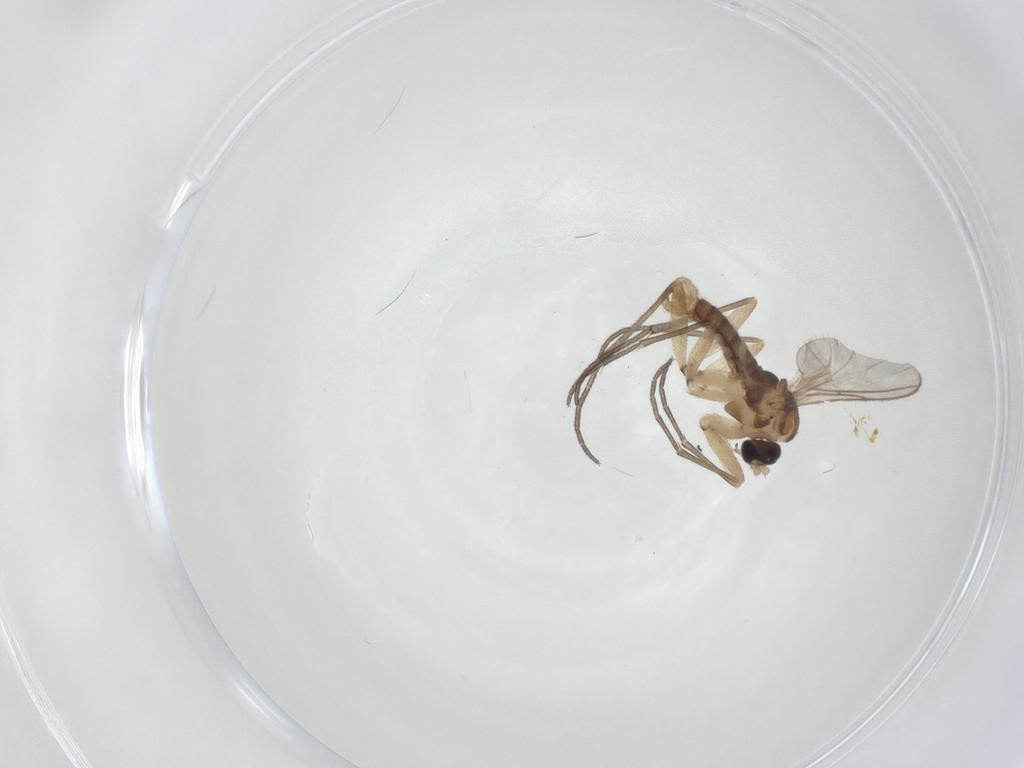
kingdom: Animalia
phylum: Arthropoda
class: Insecta
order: Diptera
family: Sciaridae
